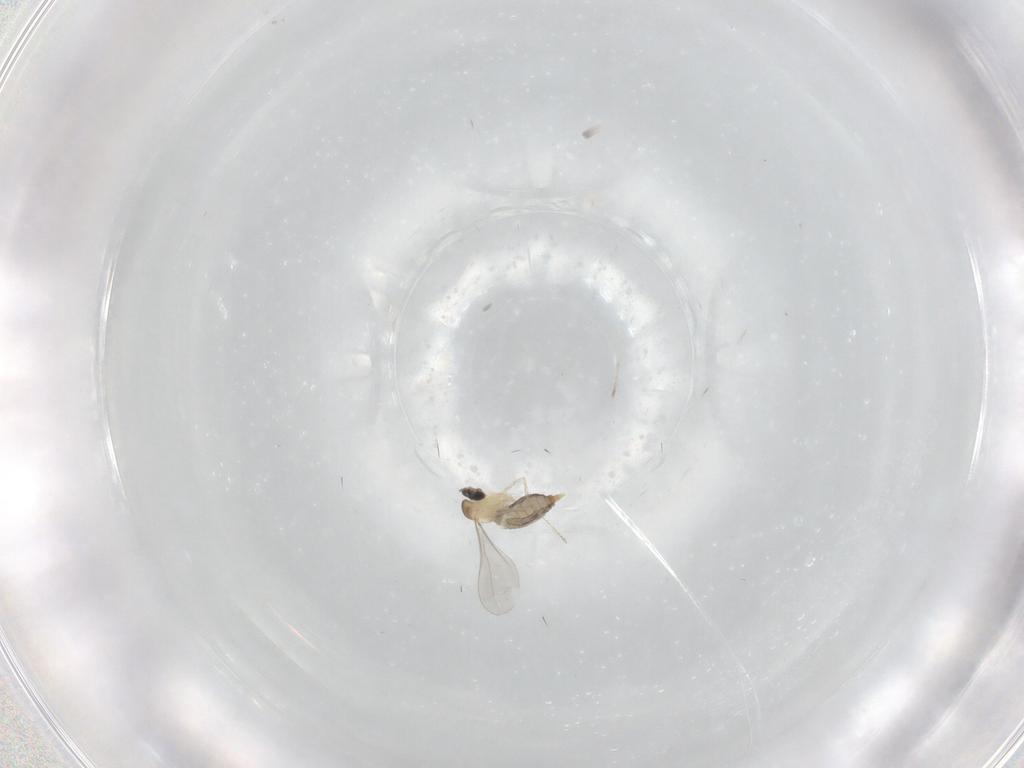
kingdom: Animalia
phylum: Arthropoda
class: Insecta
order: Diptera
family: Cecidomyiidae
